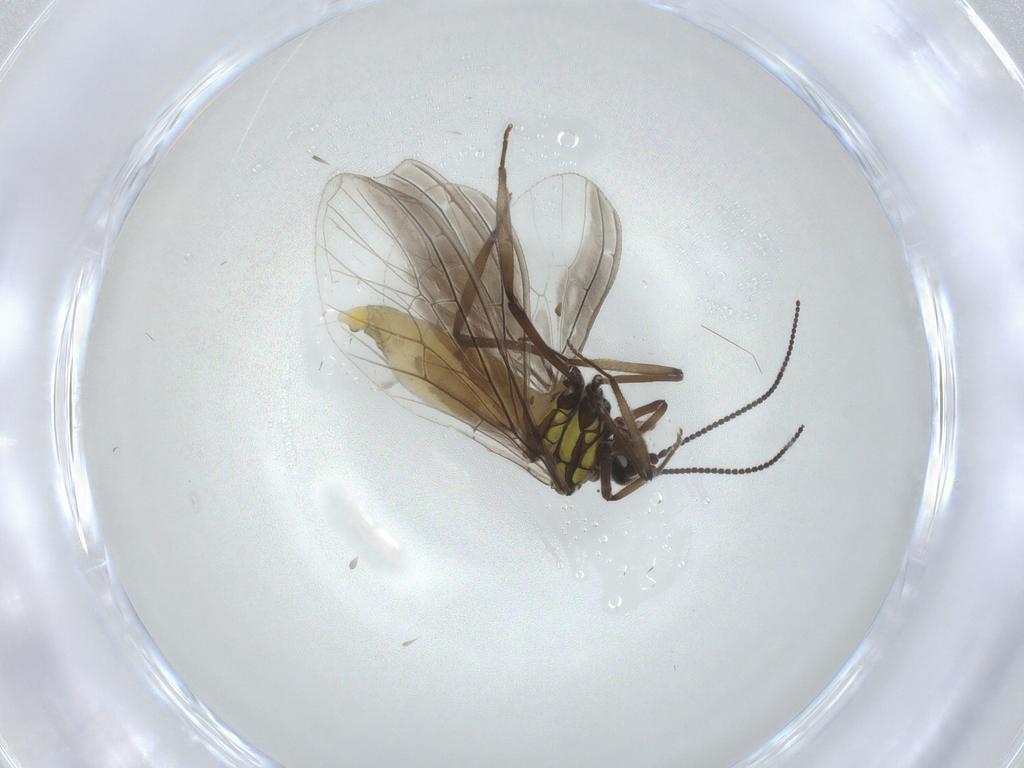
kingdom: Animalia
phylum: Arthropoda
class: Insecta
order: Neuroptera
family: Coniopterygidae
